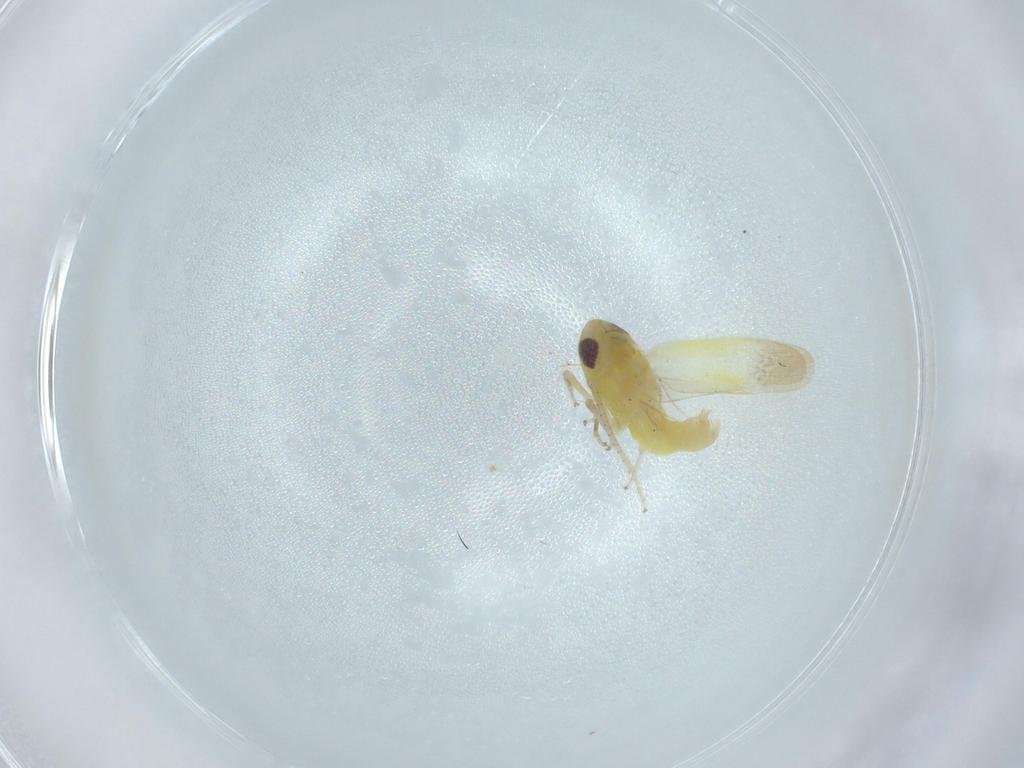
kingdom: Animalia
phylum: Arthropoda
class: Insecta
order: Hemiptera
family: Cicadellidae
